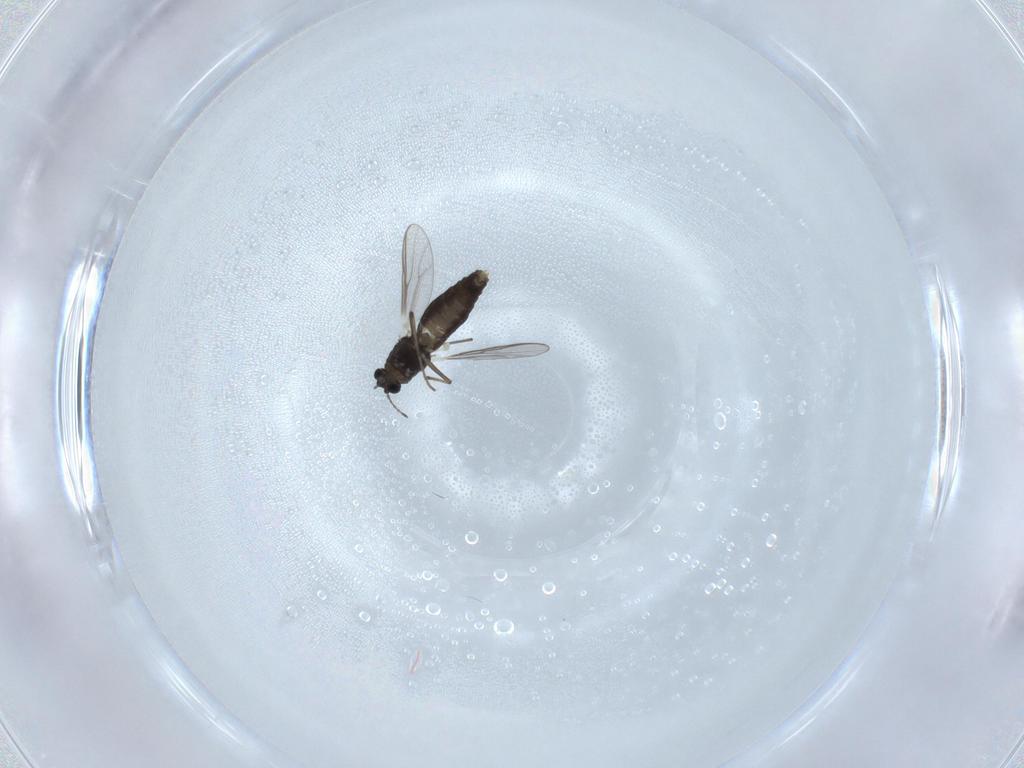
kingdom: Animalia
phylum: Arthropoda
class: Insecta
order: Diptera
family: Chironomidae
